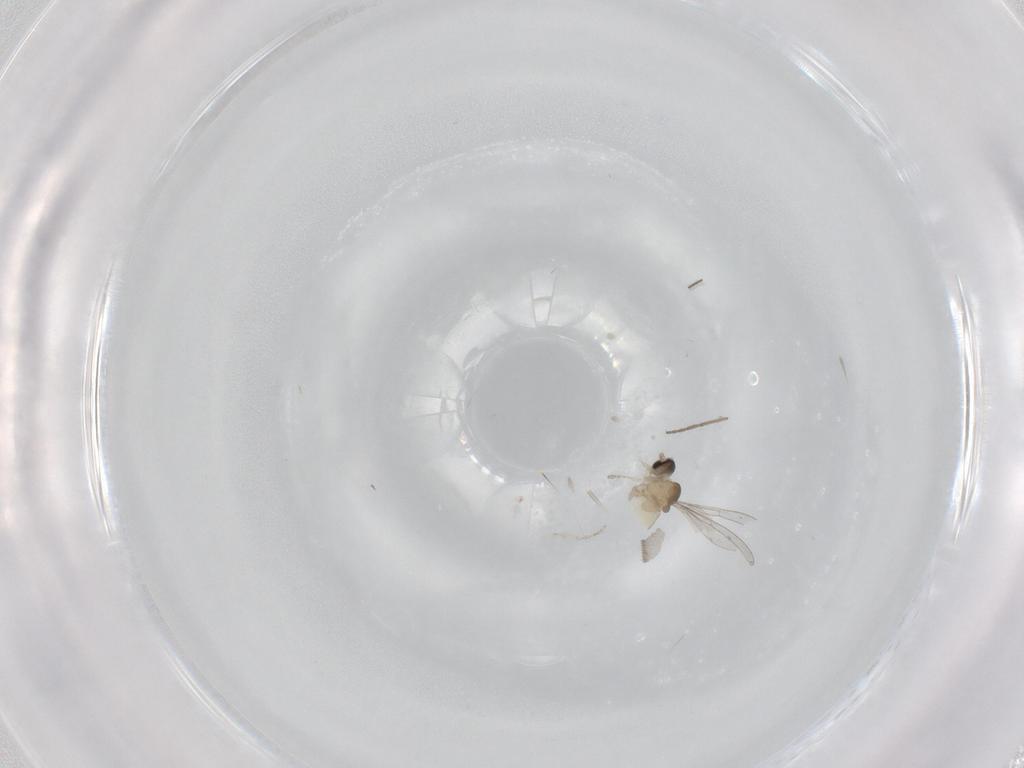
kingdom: Animalia
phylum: Arthropoda
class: Insecta
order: Diptera
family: Cecidomyiidae
